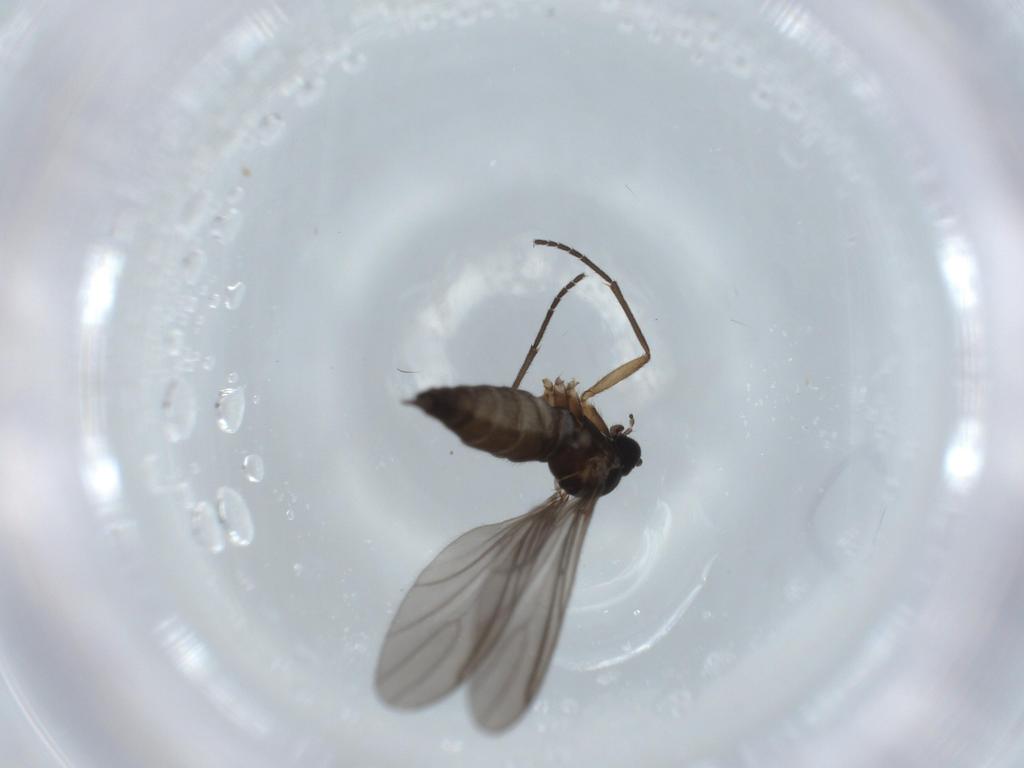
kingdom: Animalia
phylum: Arthropoda
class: Insecta
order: Diptera
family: Sciaridae
